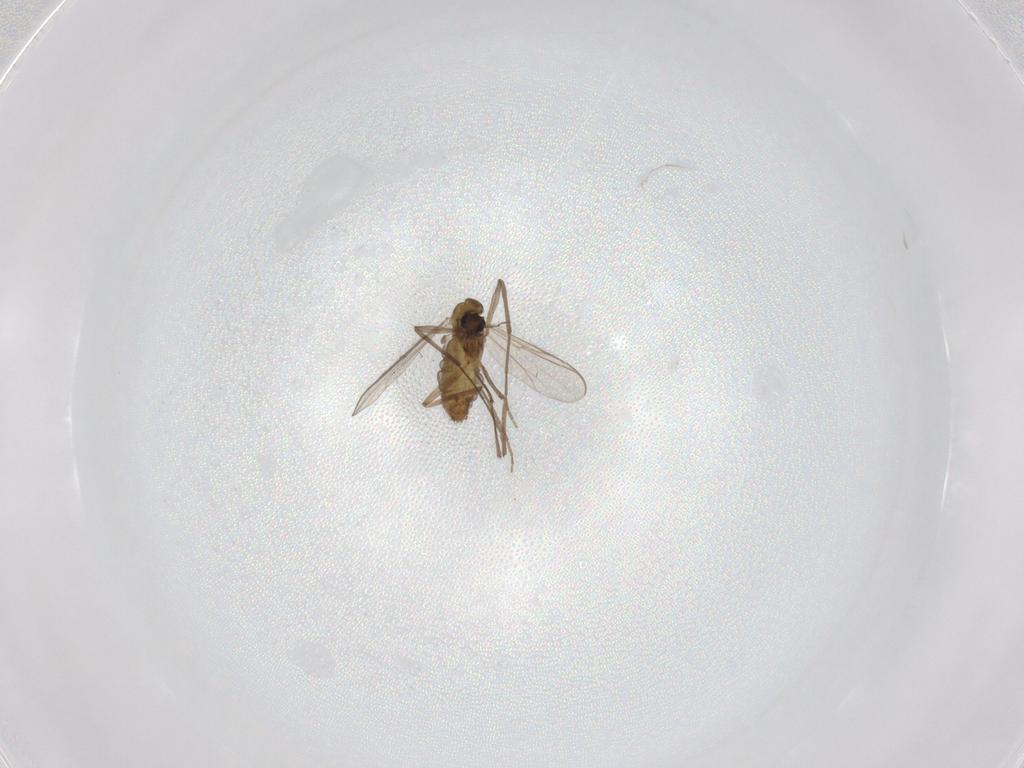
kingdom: Animalia
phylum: Arthropoda
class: Insecta
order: Diptera
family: Chironomidae
